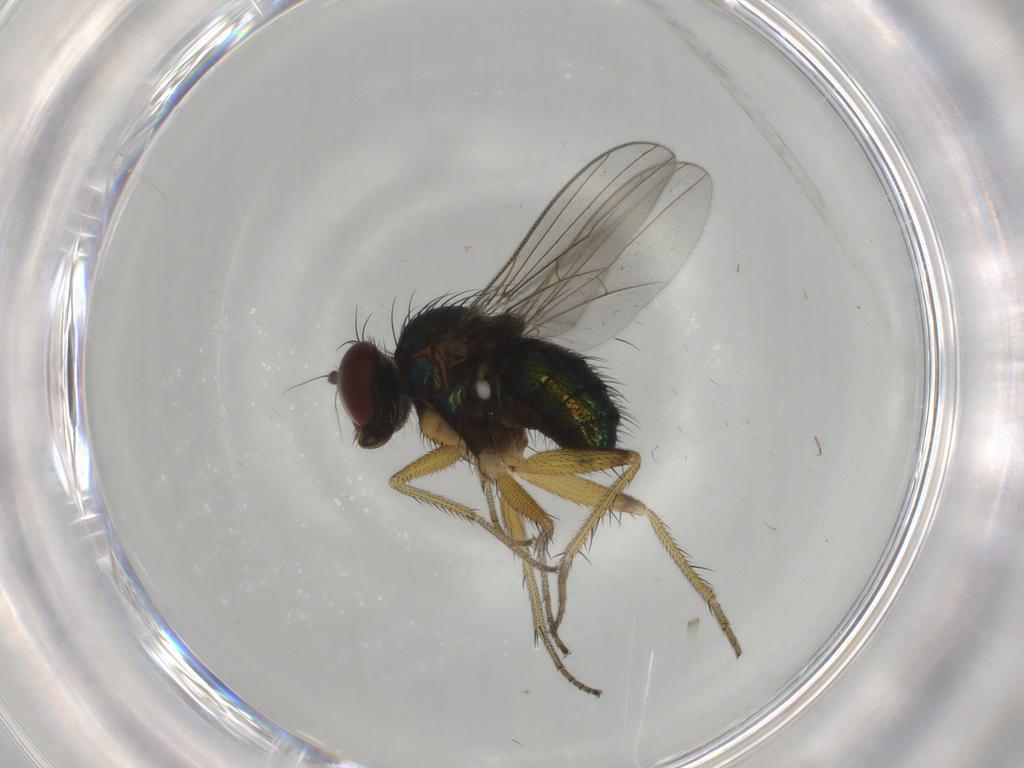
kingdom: Animalia
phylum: Arthropoda
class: Insecta
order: Diptera
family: Dolichopodidae
